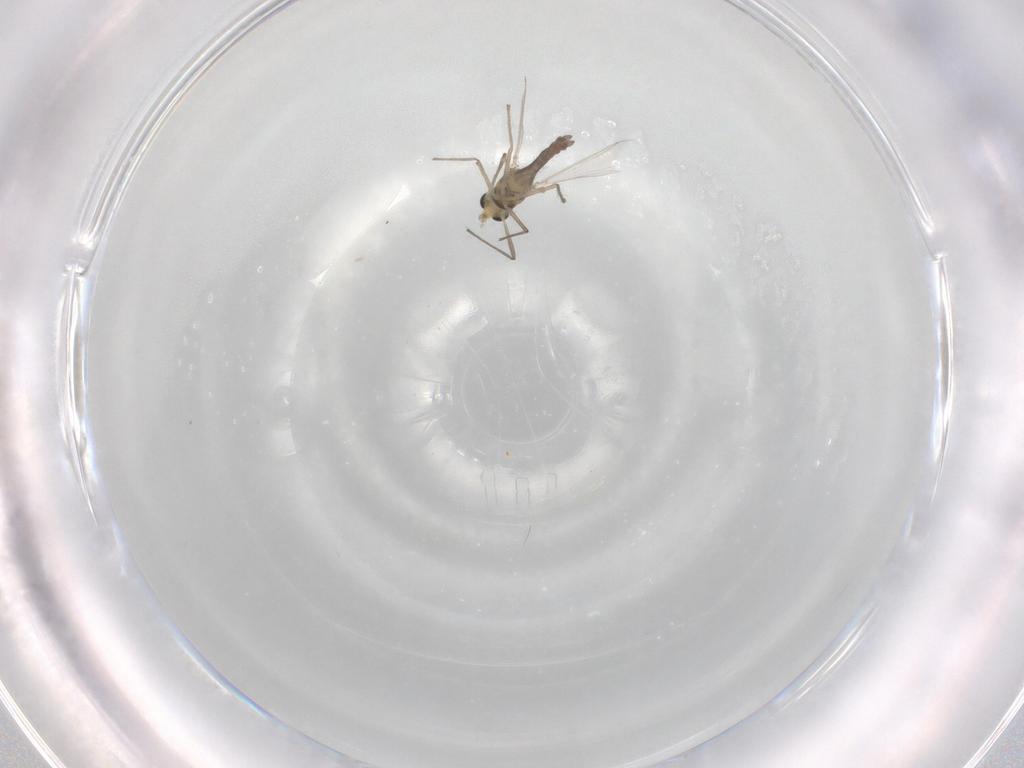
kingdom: Animalia
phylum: Arthropoda
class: Insecta
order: Diptera
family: Chironomidae
